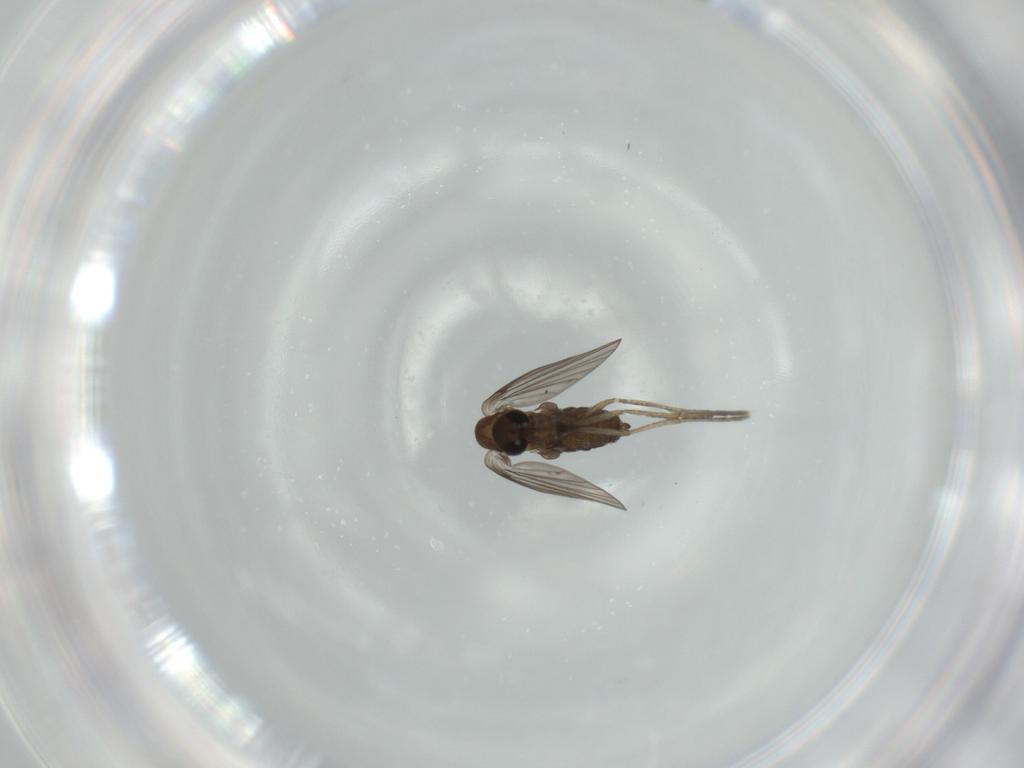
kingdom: Animalia
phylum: Arthropoda
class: Insecta
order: Diptera
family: Psychodidae
